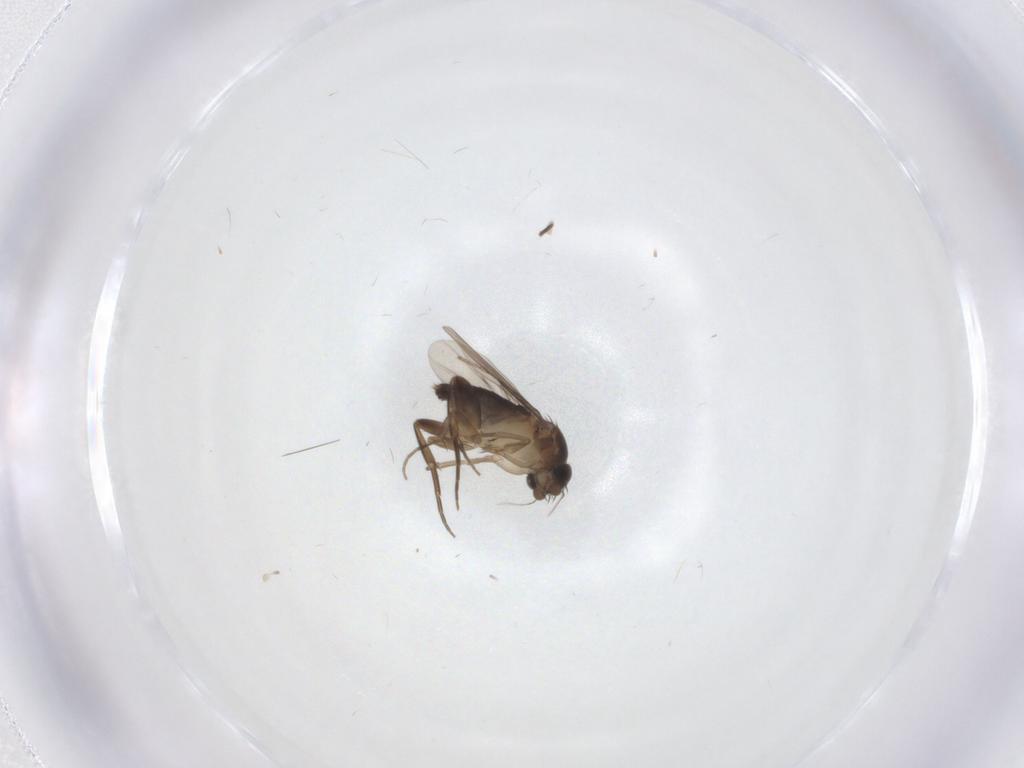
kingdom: Animalia
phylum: Arthropoda
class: Insecta
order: Diptera
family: Phoridae
